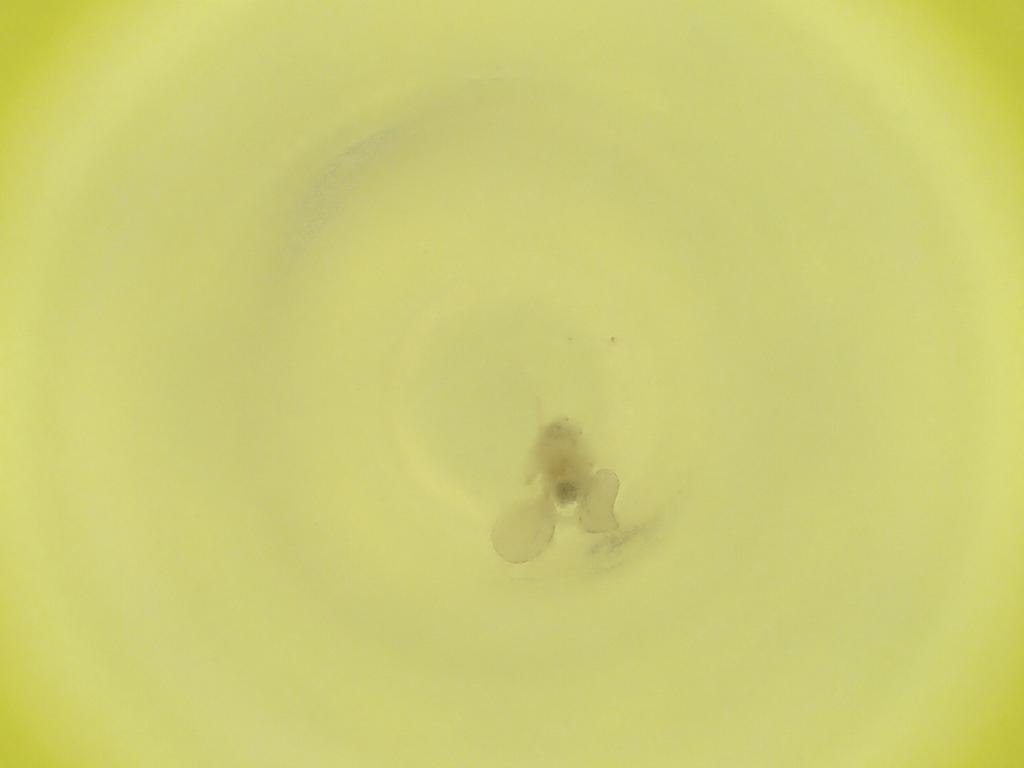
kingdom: Animalia
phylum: Arthropoda
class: Insecta
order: Diptera
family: Cecidomyiidae
